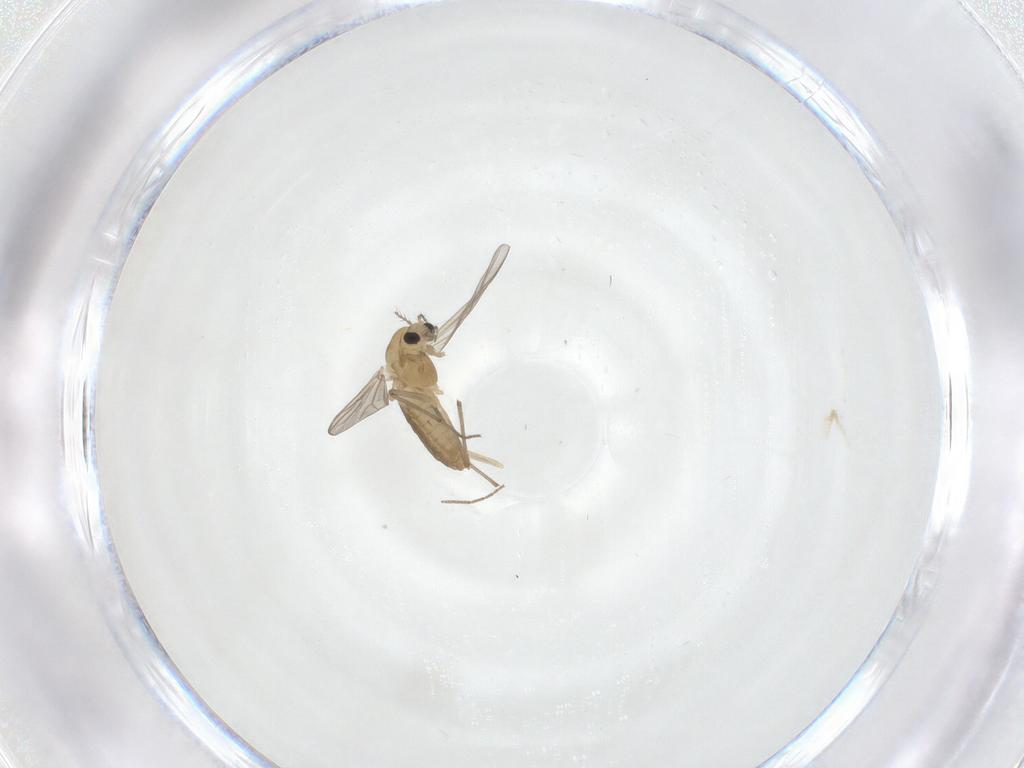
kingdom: Animalia
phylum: Arthropoda
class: Insecta
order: Diptera
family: Chironomidae
